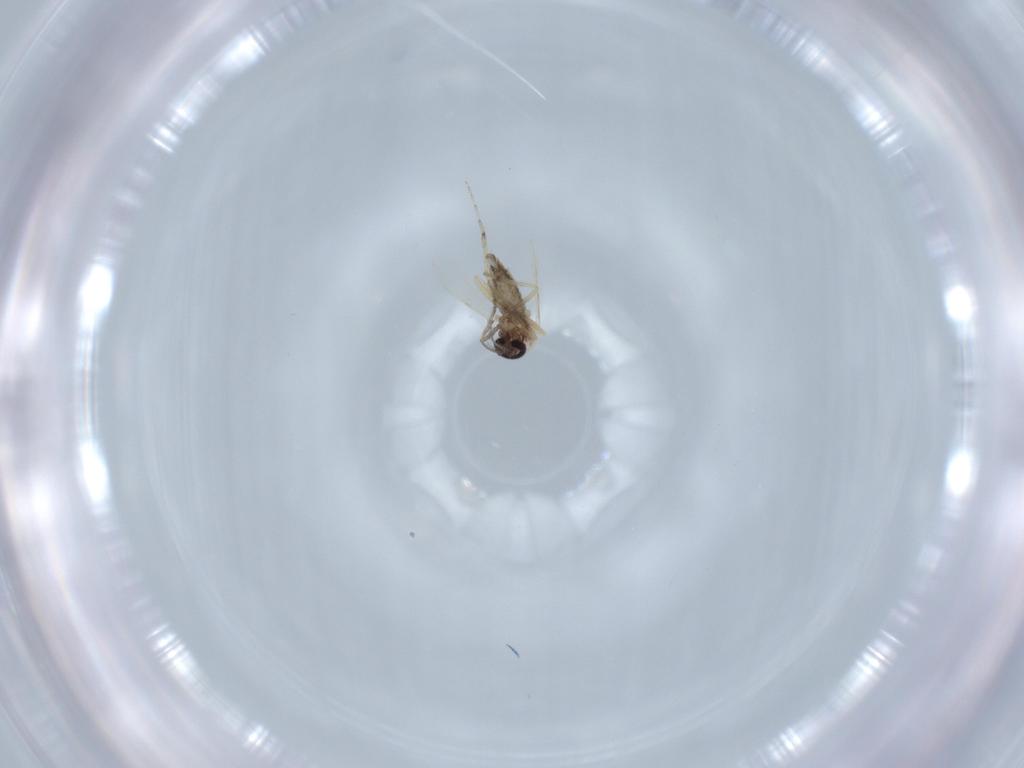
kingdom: Animalia
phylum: Arthropoda
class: Insecta
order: Diptera
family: Ceratopogonidae
